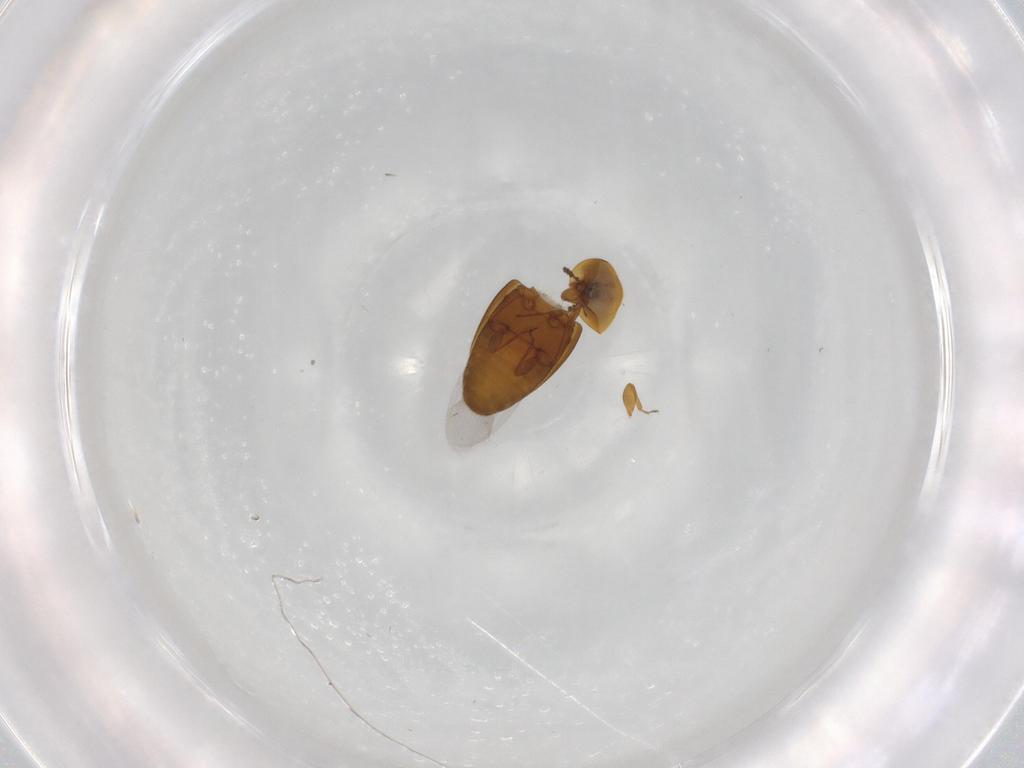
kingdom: Animalia
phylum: Arthropoda
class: Insecta
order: Coleoptera
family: Corylophidae
